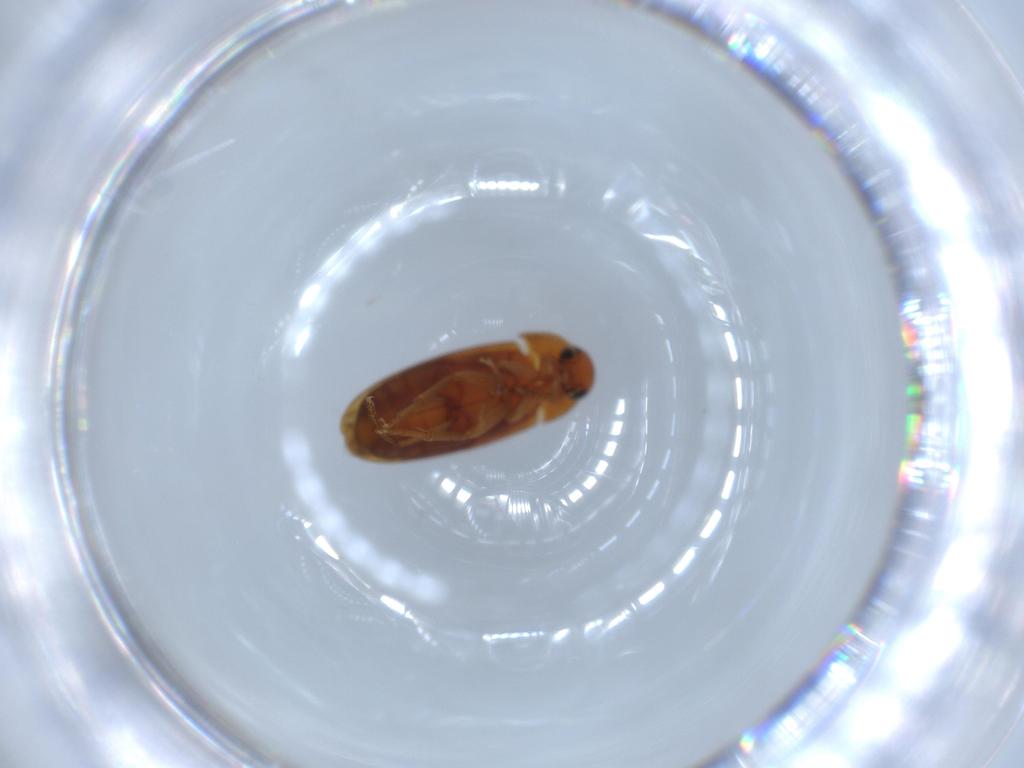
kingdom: Animalia
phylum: Arthropoda
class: Insecta
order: Coleoptera
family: Scraptiidae
